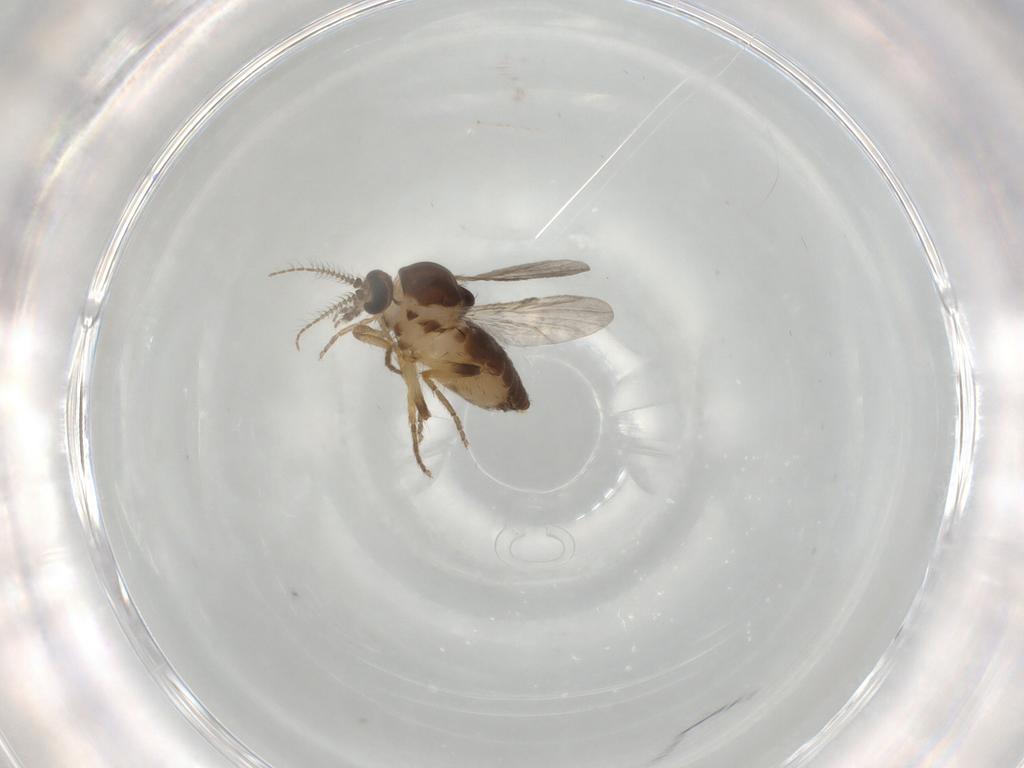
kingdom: Animalia
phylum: Arthropoda
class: Insecta
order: Diptera
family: Ceratopogonidae
